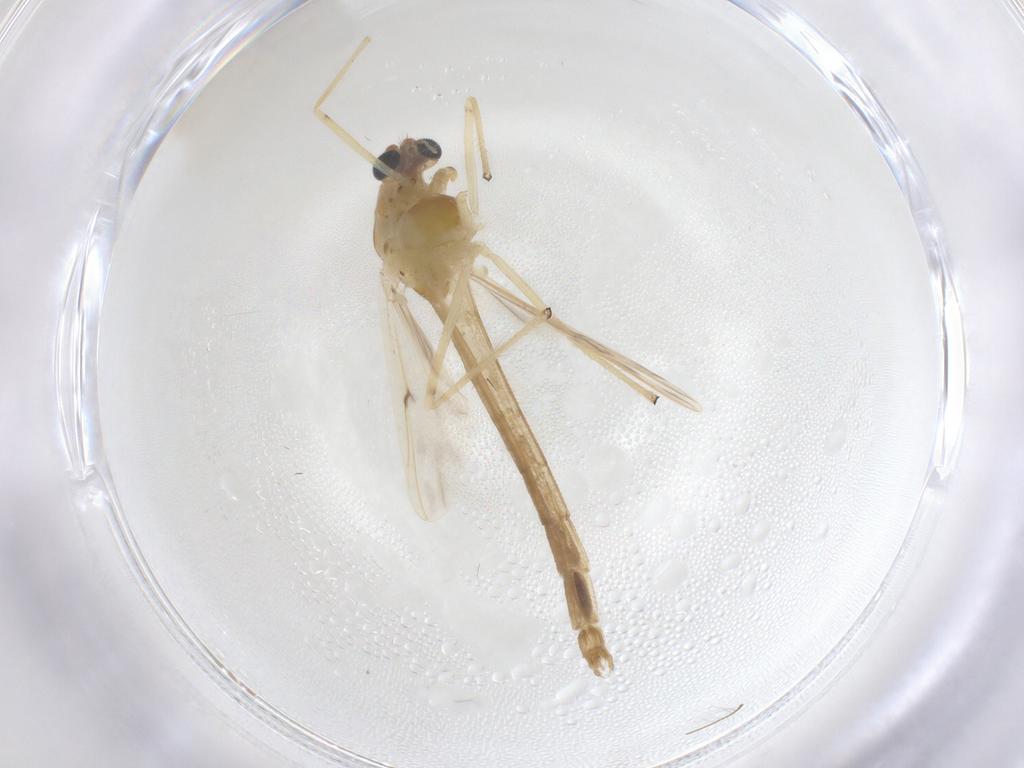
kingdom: Animalia
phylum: Arthropoda
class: Insecta
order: Diptera
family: Chironomidae
